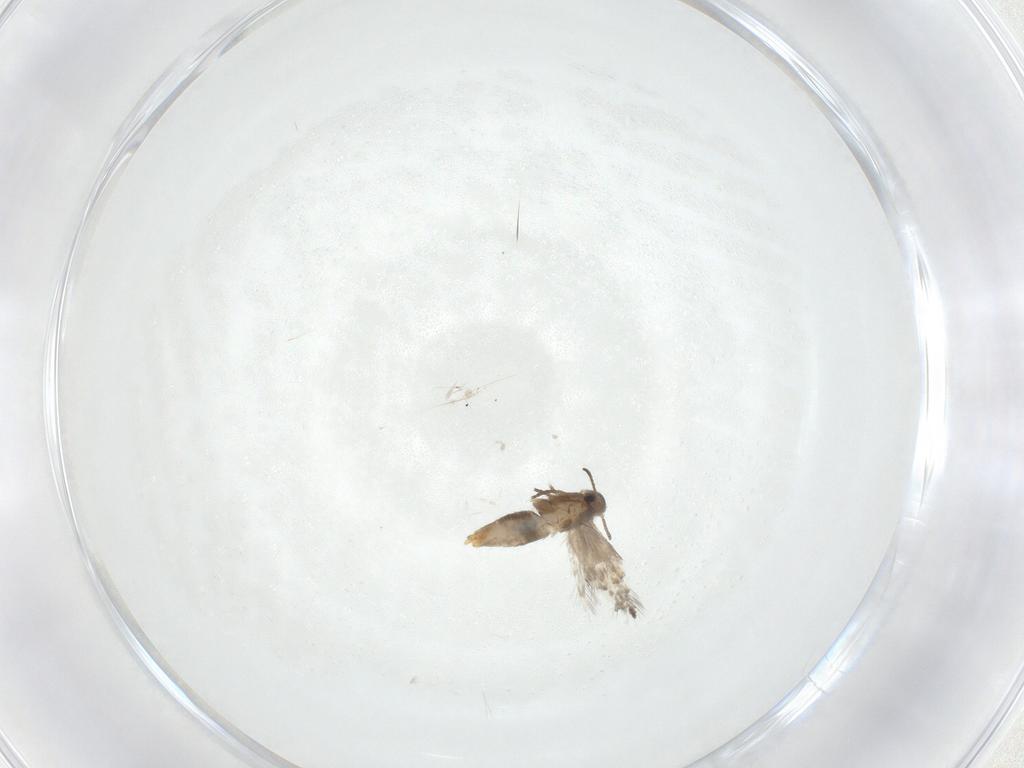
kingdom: Animalia
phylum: Arthropoda
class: Insecta
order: Lepidoptera
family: Heliozelidae
